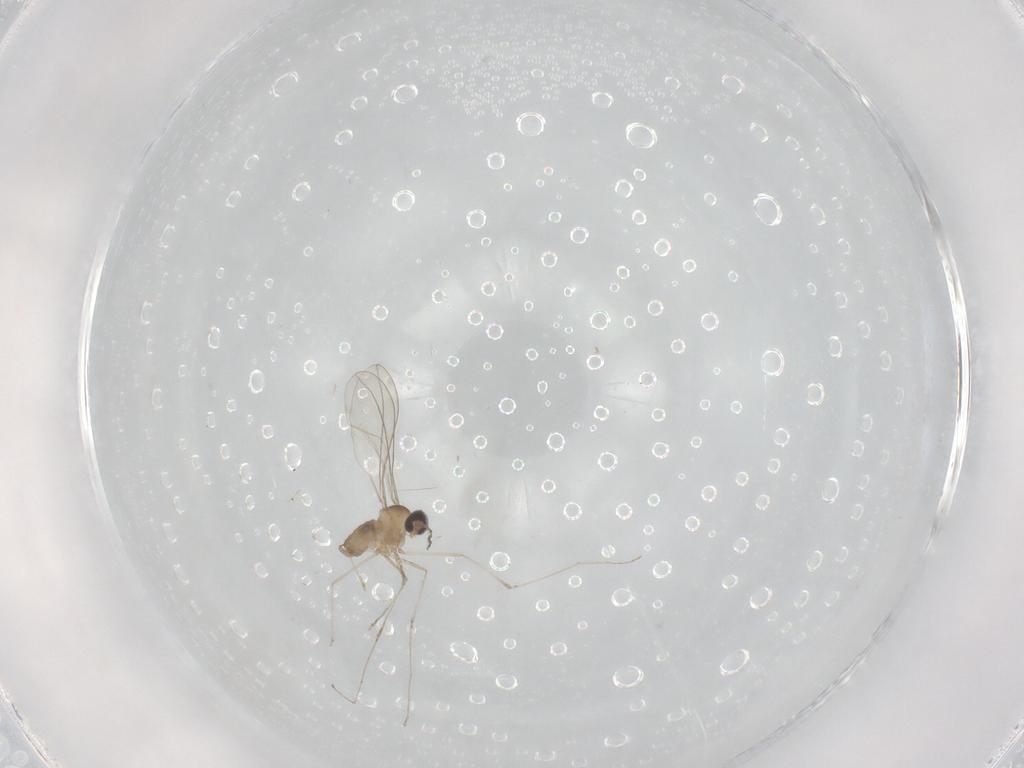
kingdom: Animalia
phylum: Arthropoda
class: Insecta
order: Diptera
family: Cecidomyiidae
